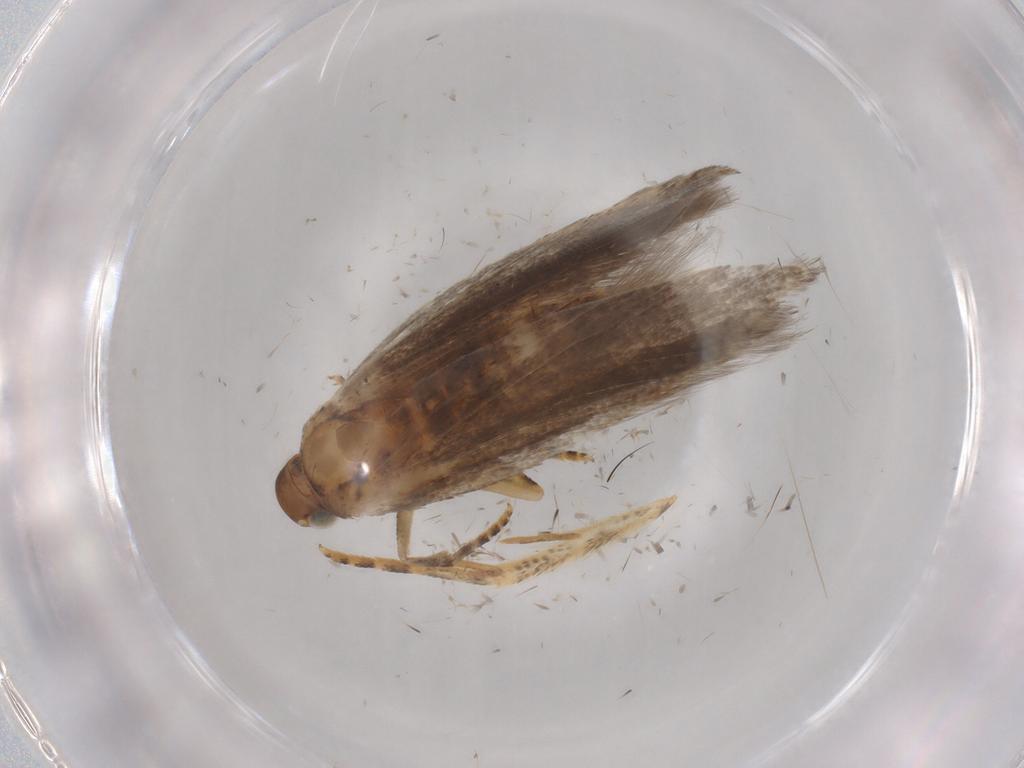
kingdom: Animalia
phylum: Arthropoda
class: Insecta
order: Lepidoptera
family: Gelechiidae
